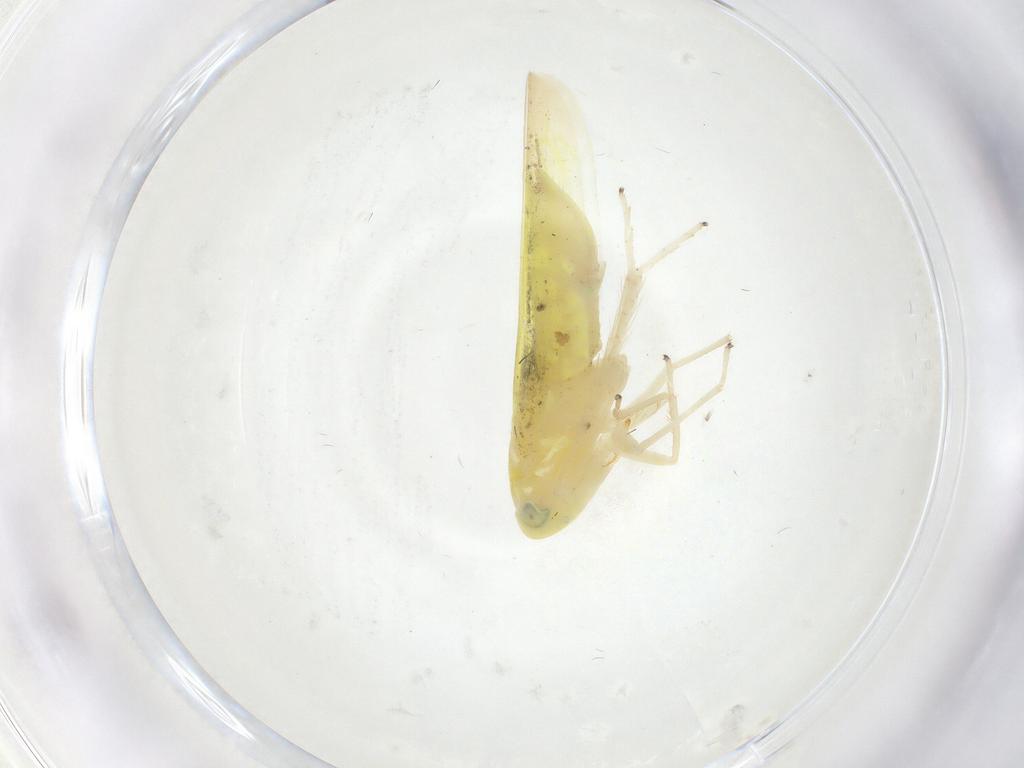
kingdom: Animalia
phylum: Arthropoda
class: Insecta
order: Hemiptera
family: Cicadellidae
